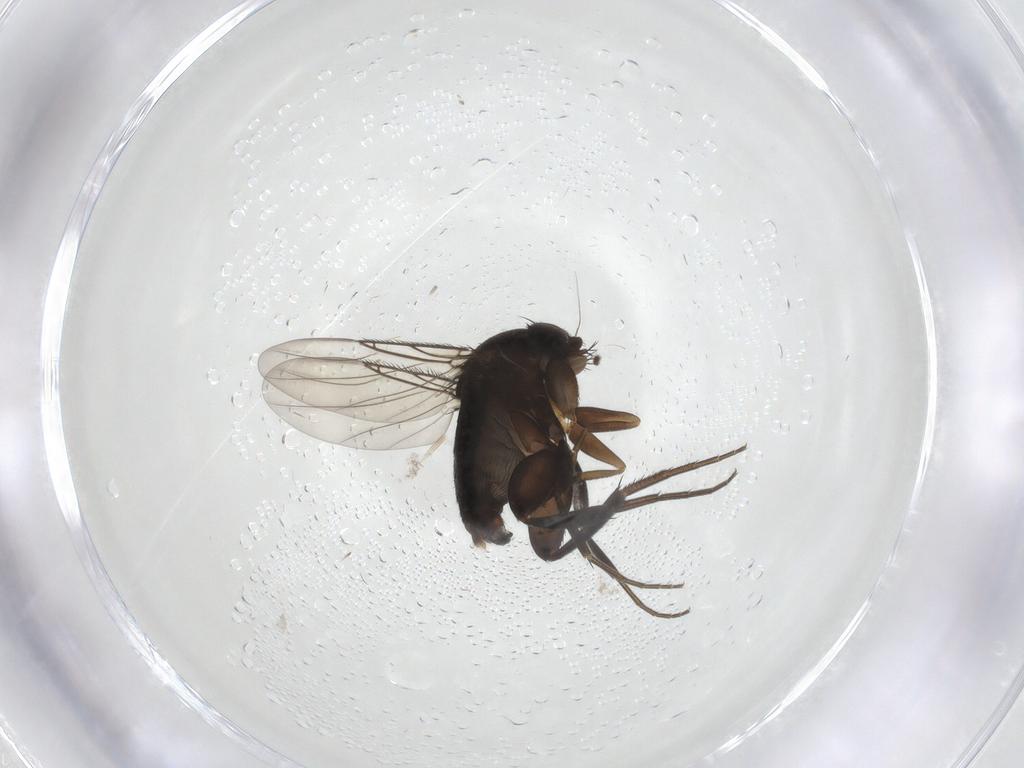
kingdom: Animalia
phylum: Arthropoda
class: Insecta
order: Diptera
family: Phoridae
